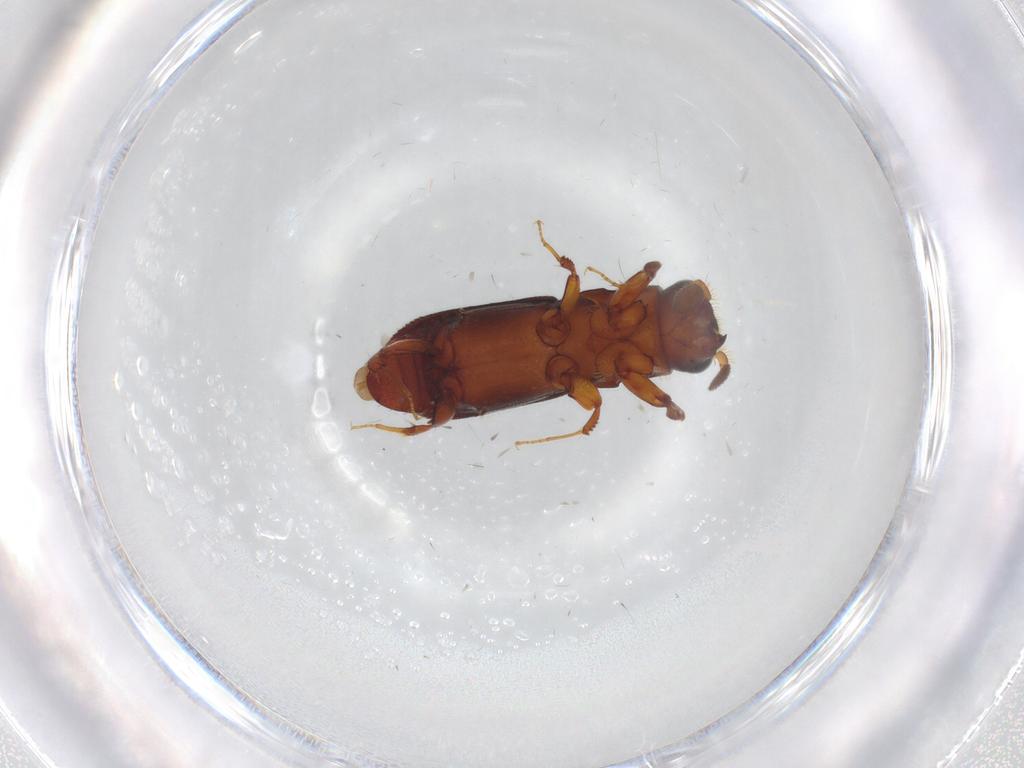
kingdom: Animalia
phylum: Arthropoda
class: Insecta
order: Coleoptera
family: Curculionidae
